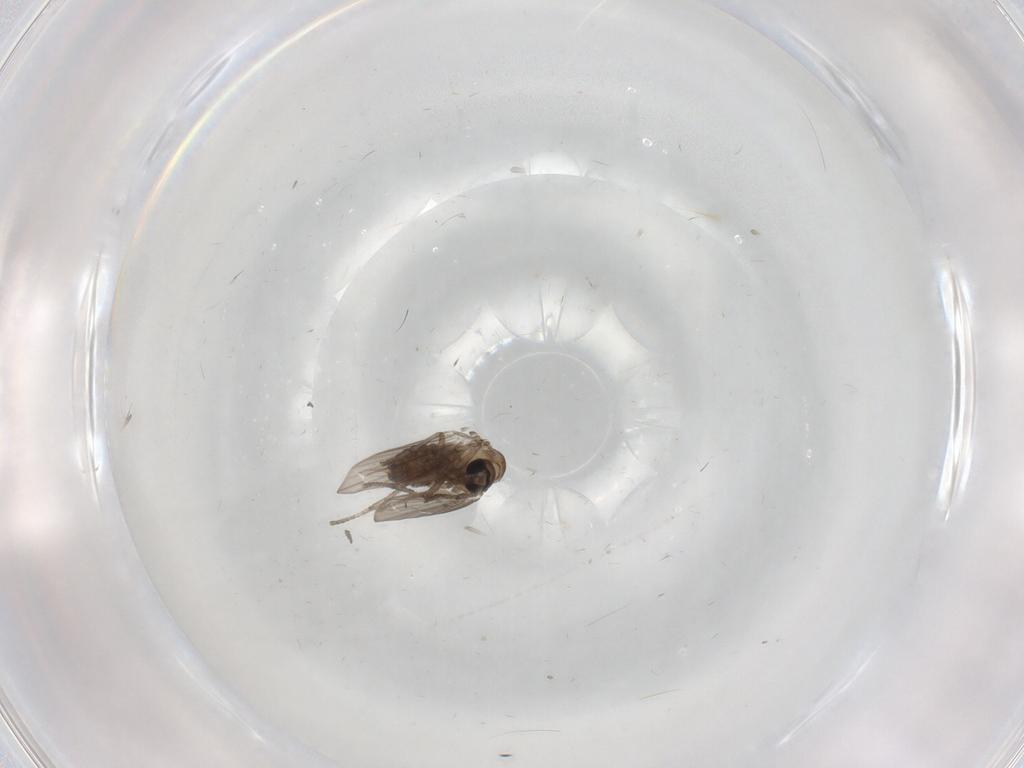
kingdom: Animalia
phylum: Arthropoda
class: Insecta
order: Diptera
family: Psychodidae
